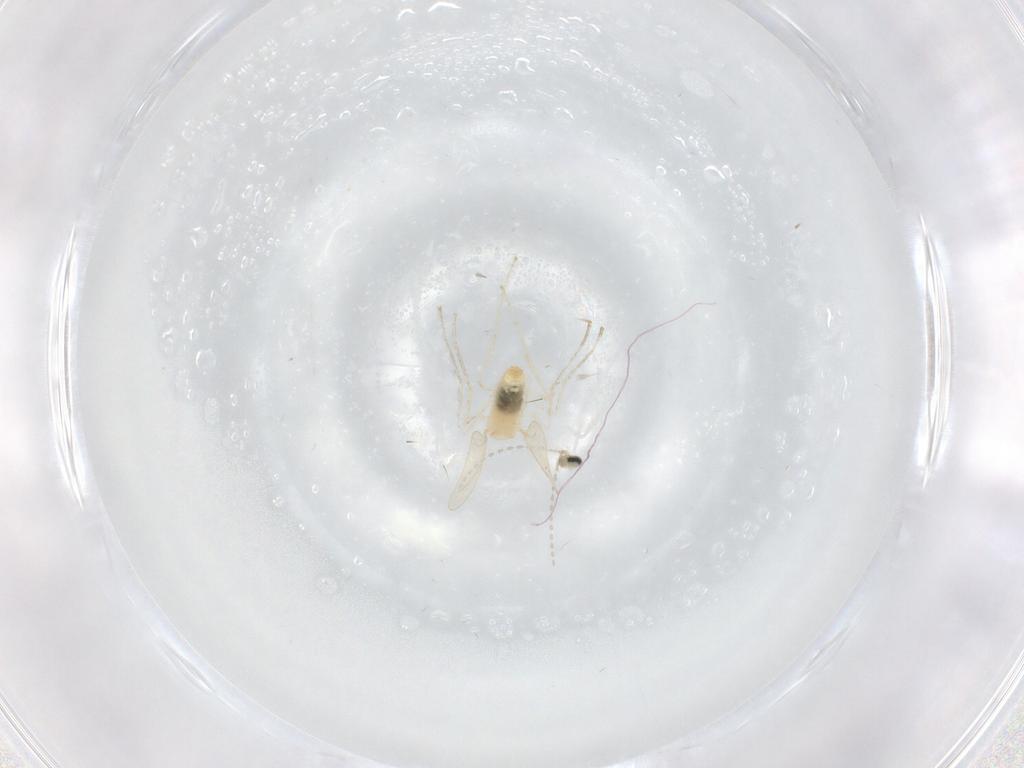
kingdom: Animalia
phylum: Arthropoda
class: Insecta
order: Diptera
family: Cecidomyiidae
